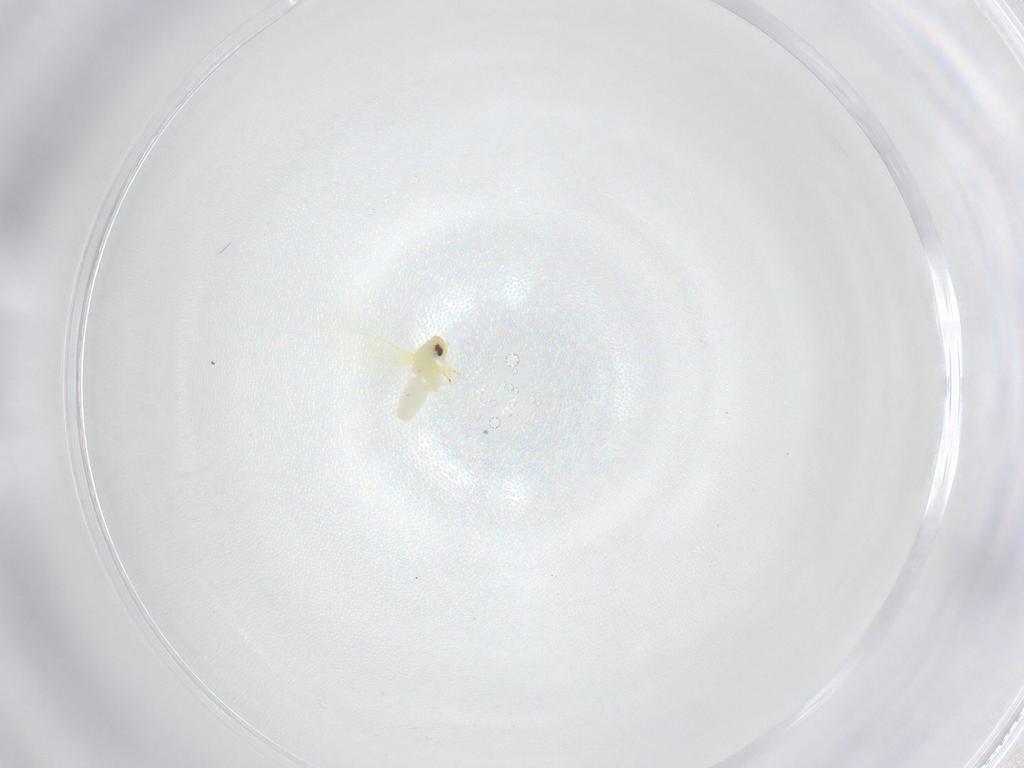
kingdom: Animalia
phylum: Arthropoda
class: Insecta
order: Hemiptera
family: Aleyrodidae
